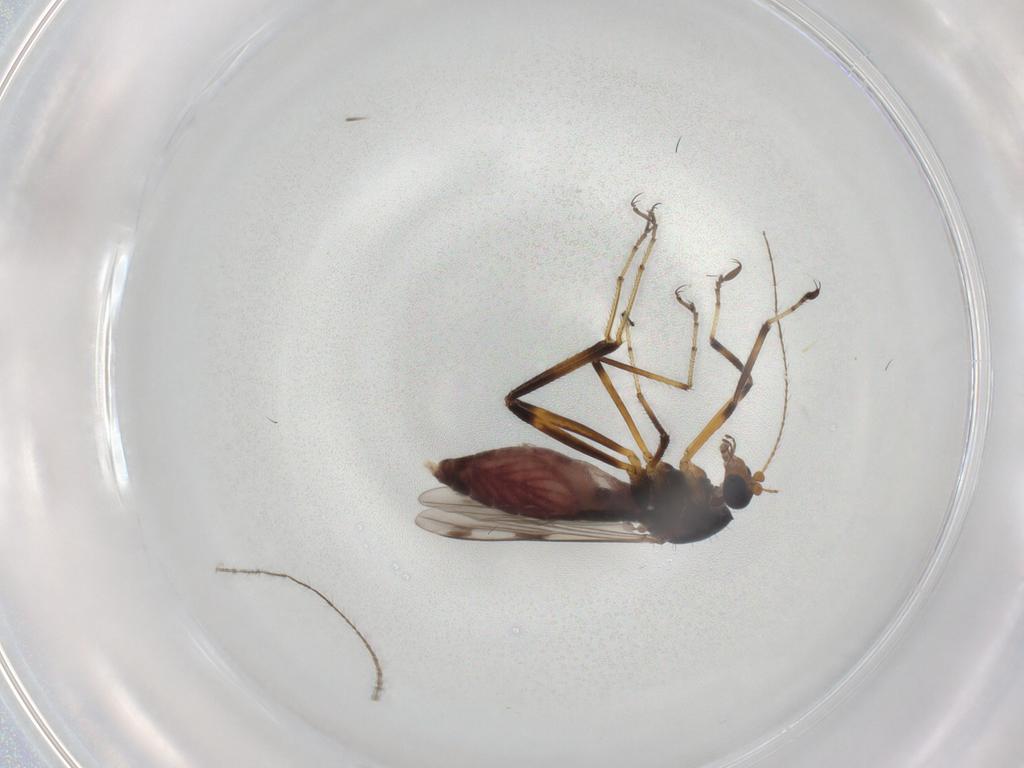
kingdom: Animalia
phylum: Arthropoda
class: Insecta
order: Diptera
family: Ceratopogonidae
